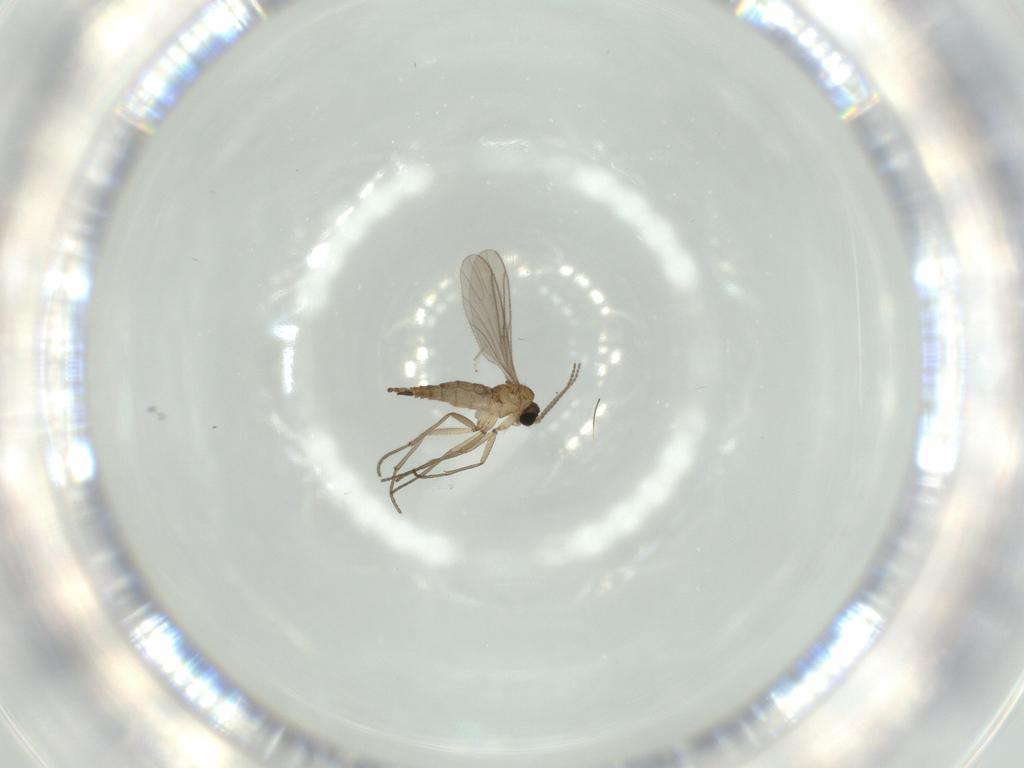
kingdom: Animalia
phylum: Arthropoda
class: Insecta
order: Diptera
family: Sciaridae
